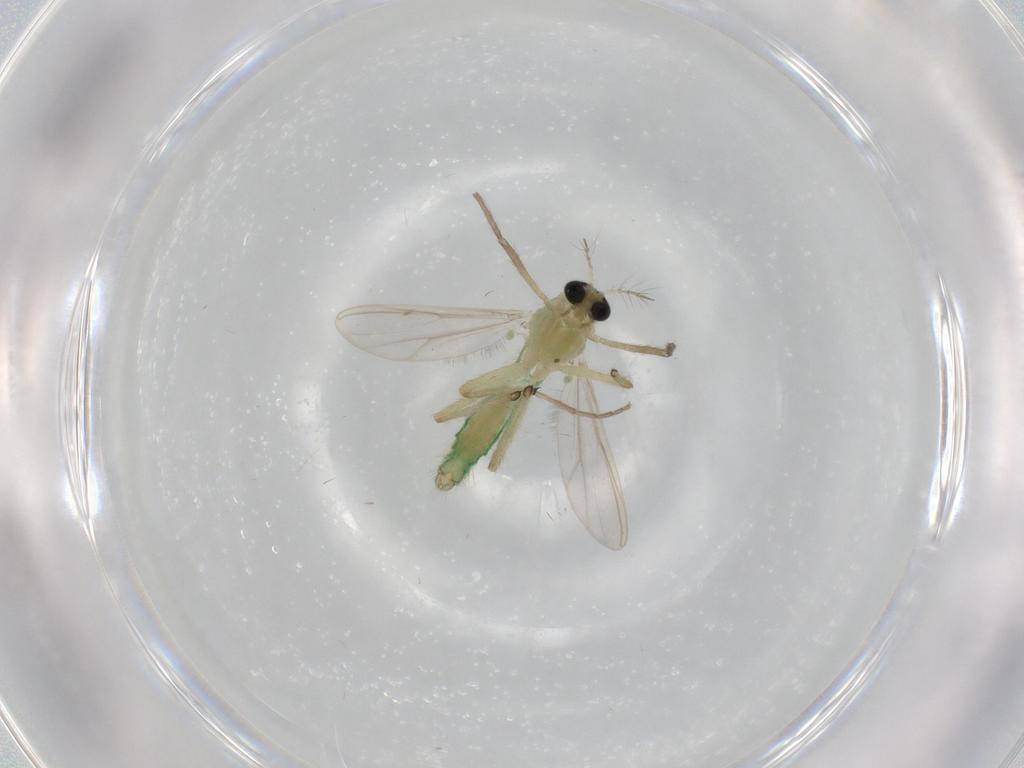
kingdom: Animalia
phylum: Arthropoda
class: Insecta
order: Diptera
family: Chironomidae
